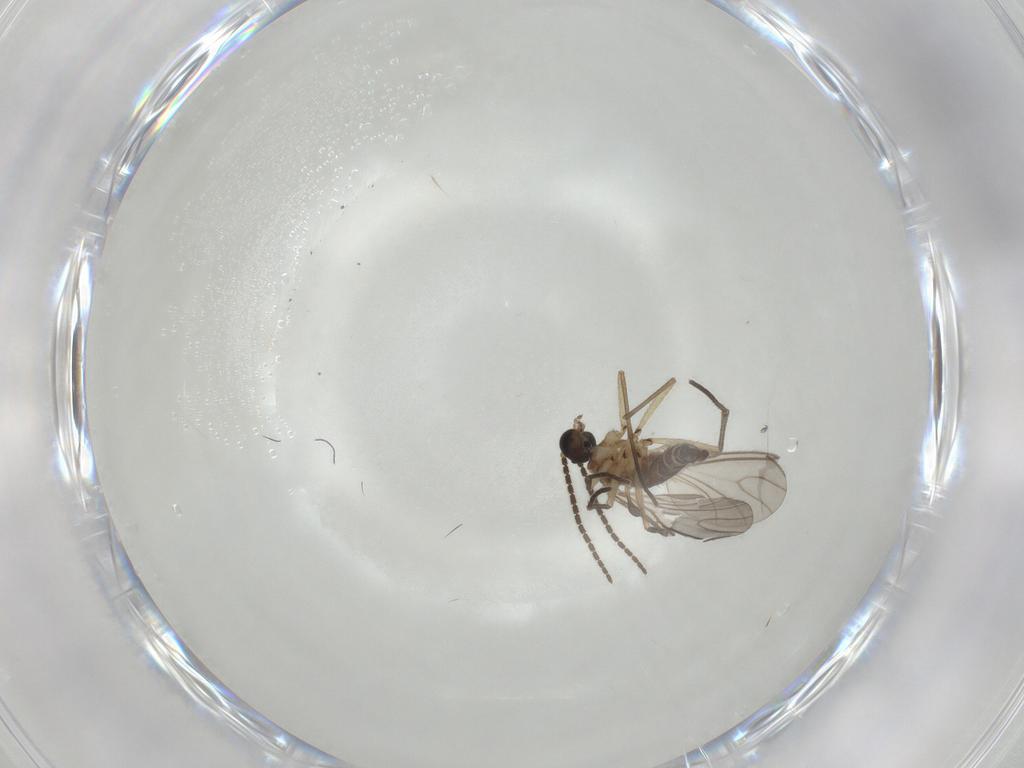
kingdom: Animalia
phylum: Arthropoda
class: Insecta
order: Diptera
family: Sciaridae
